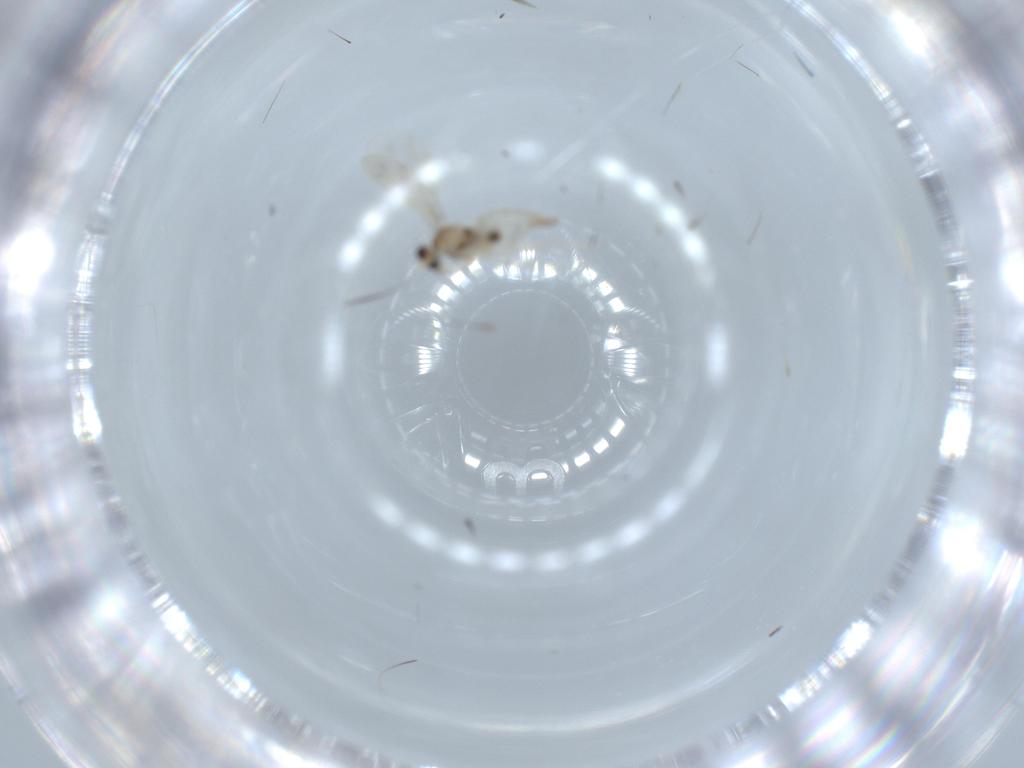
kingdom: Animalia
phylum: Arthropoda
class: Insecta
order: Diptera
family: Cecidomyiidae
